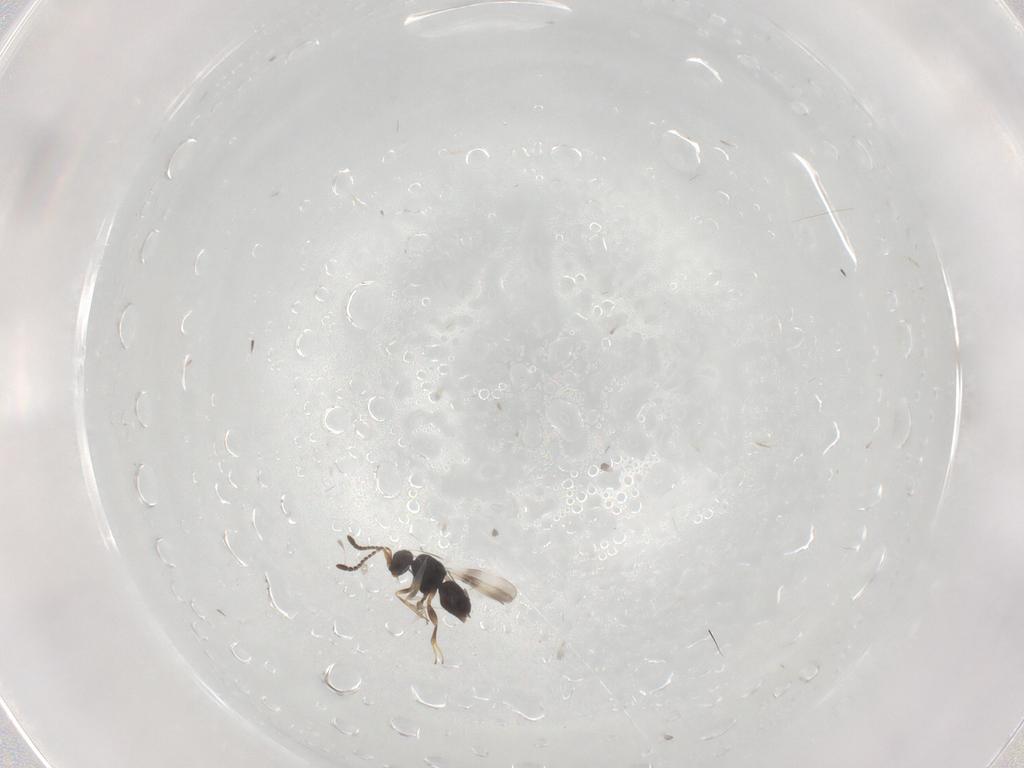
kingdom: Animalia
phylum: Arthropoda
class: Insecta
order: Hymenoptera
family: Ceraphronidae
